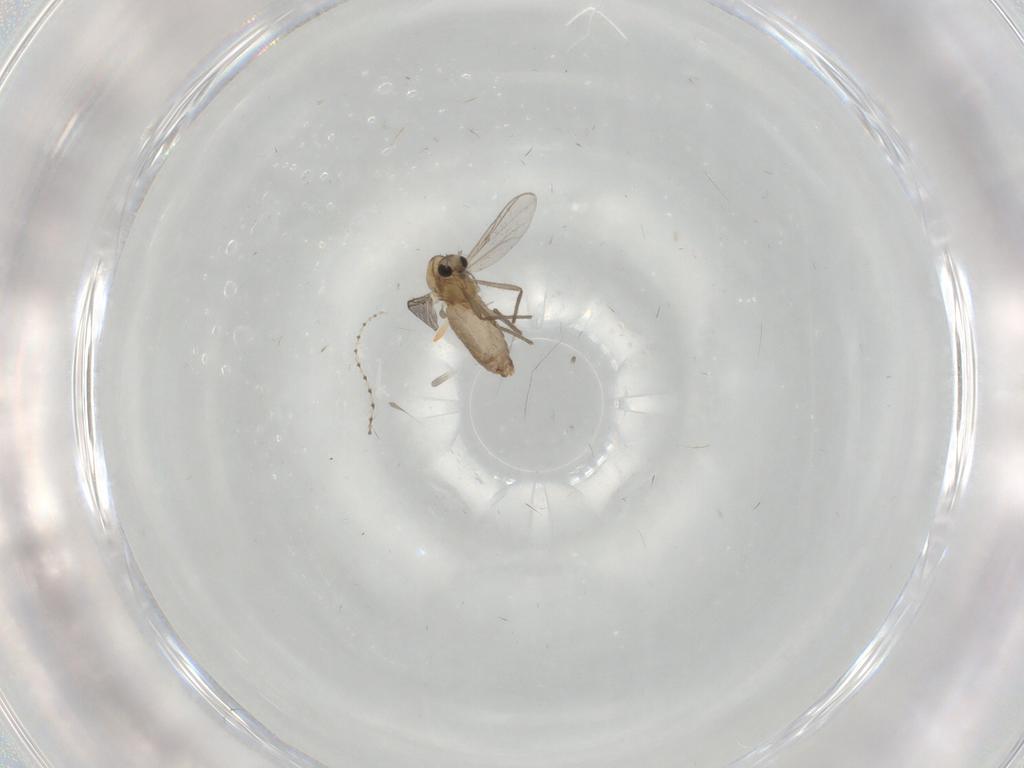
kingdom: Animalia
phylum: Arthropoda
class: Insecta
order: Diptera
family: Chironomidae
